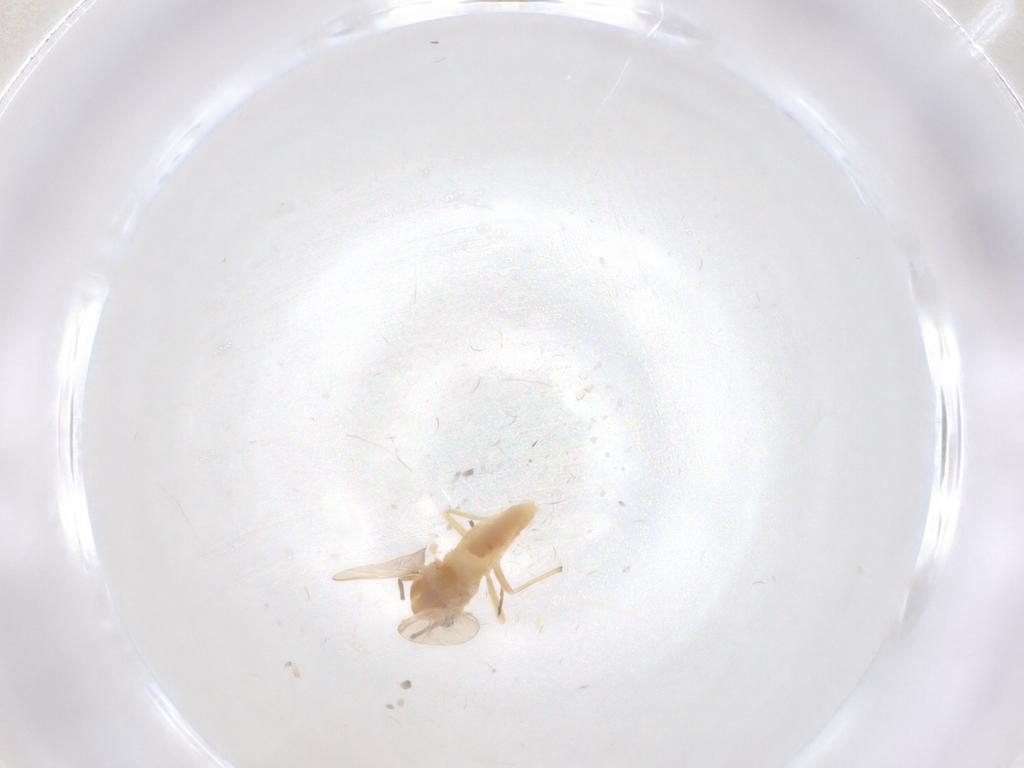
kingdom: Animalia
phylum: Arthropoda
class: Insecta
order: Diptera
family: Chironomidae
